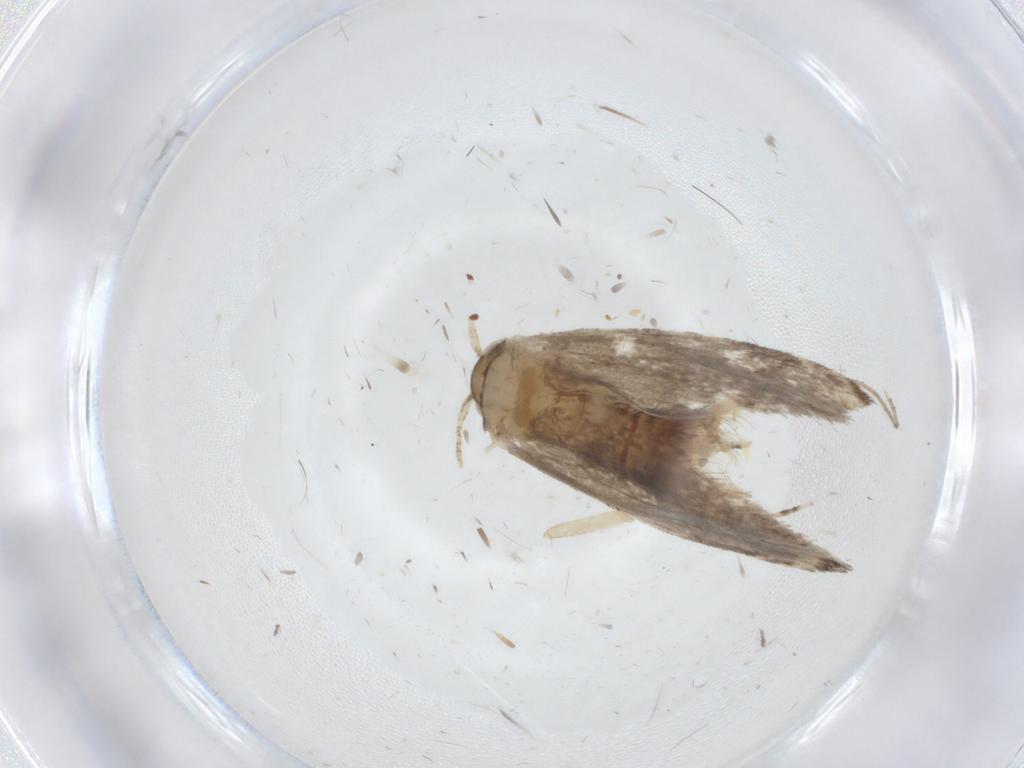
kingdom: Animalia
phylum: Arthropoda
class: Insecta
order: Lepidoptera
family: Tineidae
